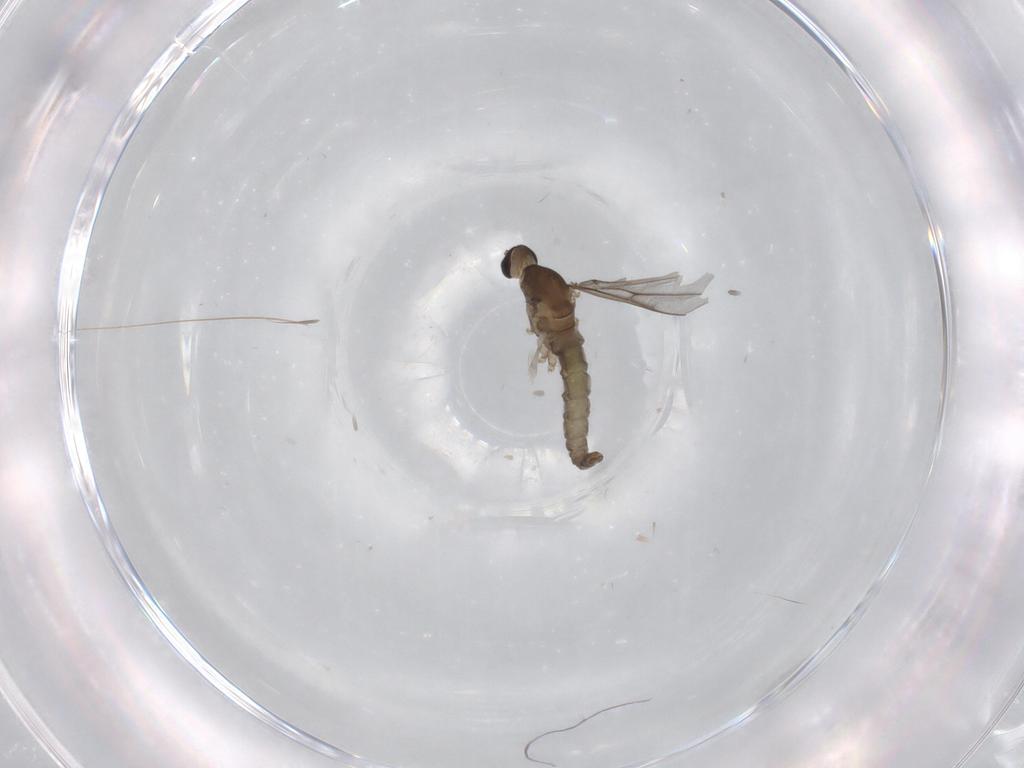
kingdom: Animalia
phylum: Arthropoda
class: Insecta
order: Diptera
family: Cecidomyiidae
